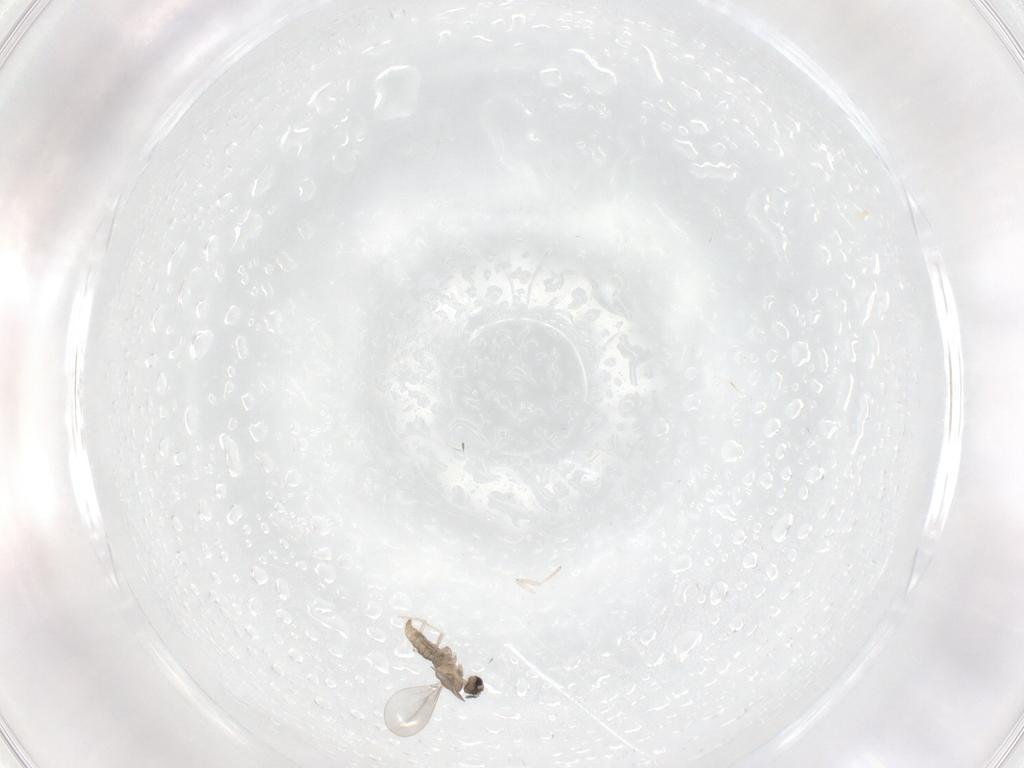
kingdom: Animalia
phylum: Arthropoda
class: Insecta
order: Diptera
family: Cecidomyiidae
